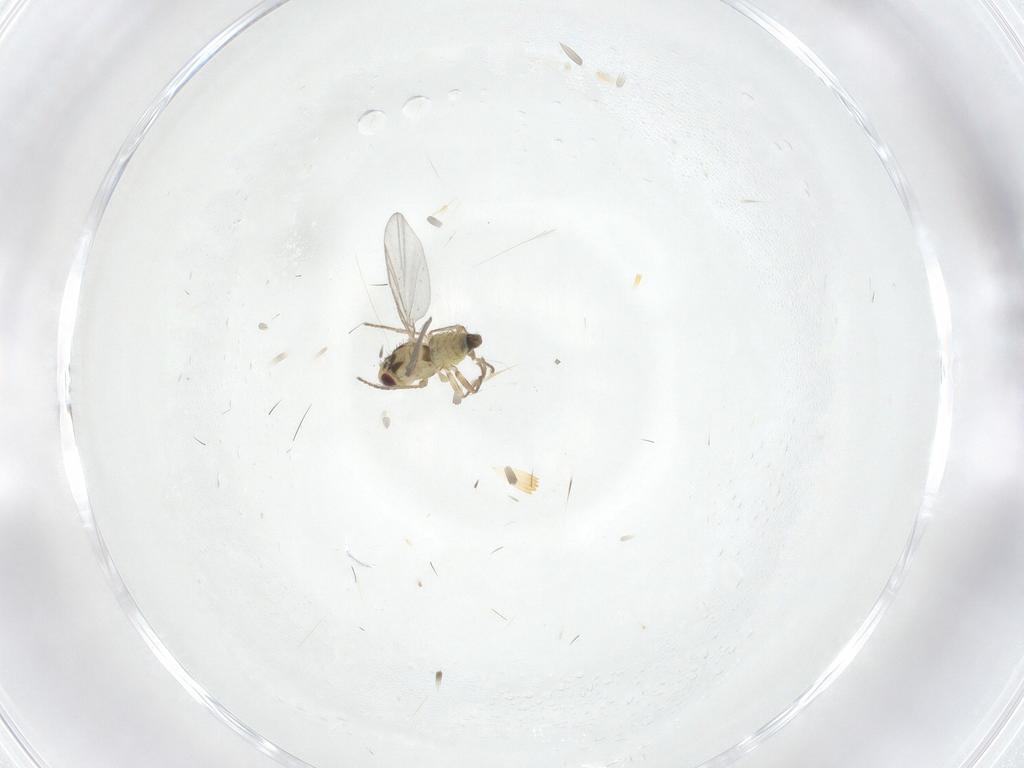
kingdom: Animalia
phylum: Arthropoda
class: Insecta
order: Diptera
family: Agromyzidae
